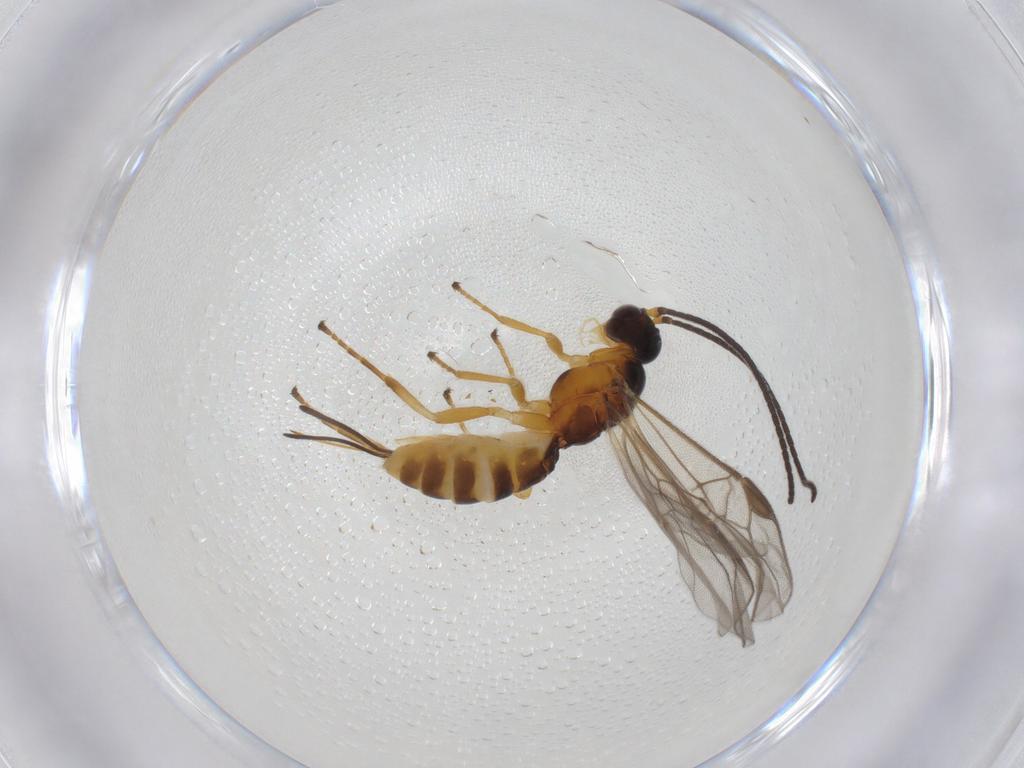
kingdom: Animalia
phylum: Arthropoda
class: Insecta
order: Hymenoptera
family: Braconidae
